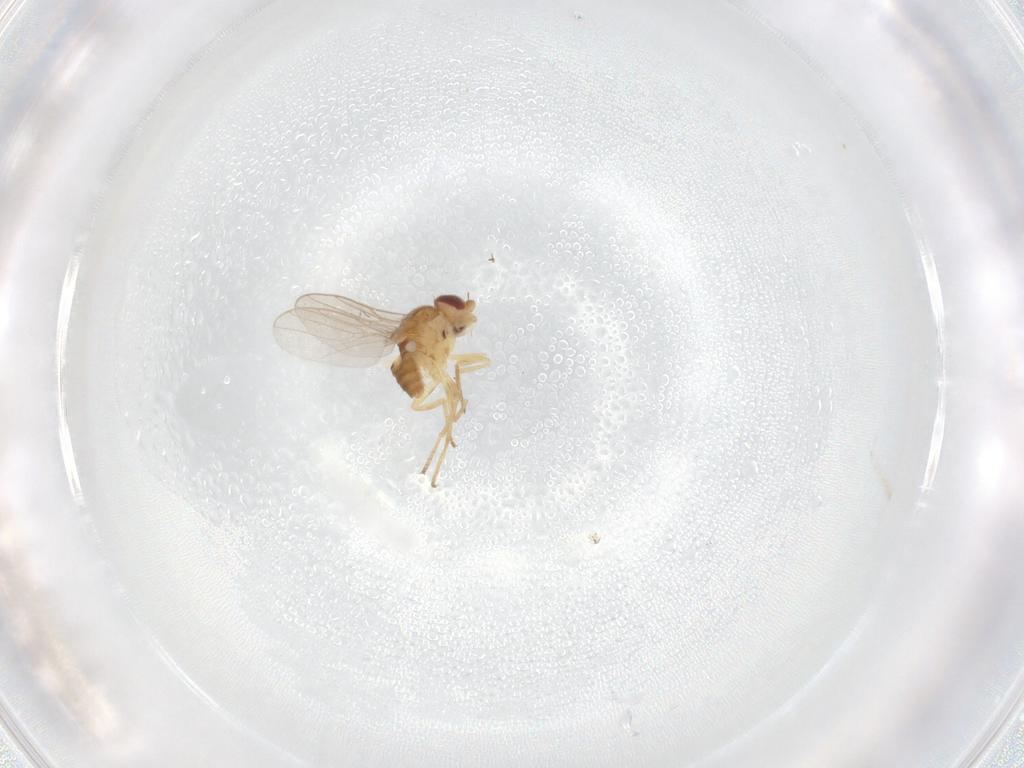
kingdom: Animalia
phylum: Arthropoda
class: Insecta
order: Diptera
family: Chloropidae
